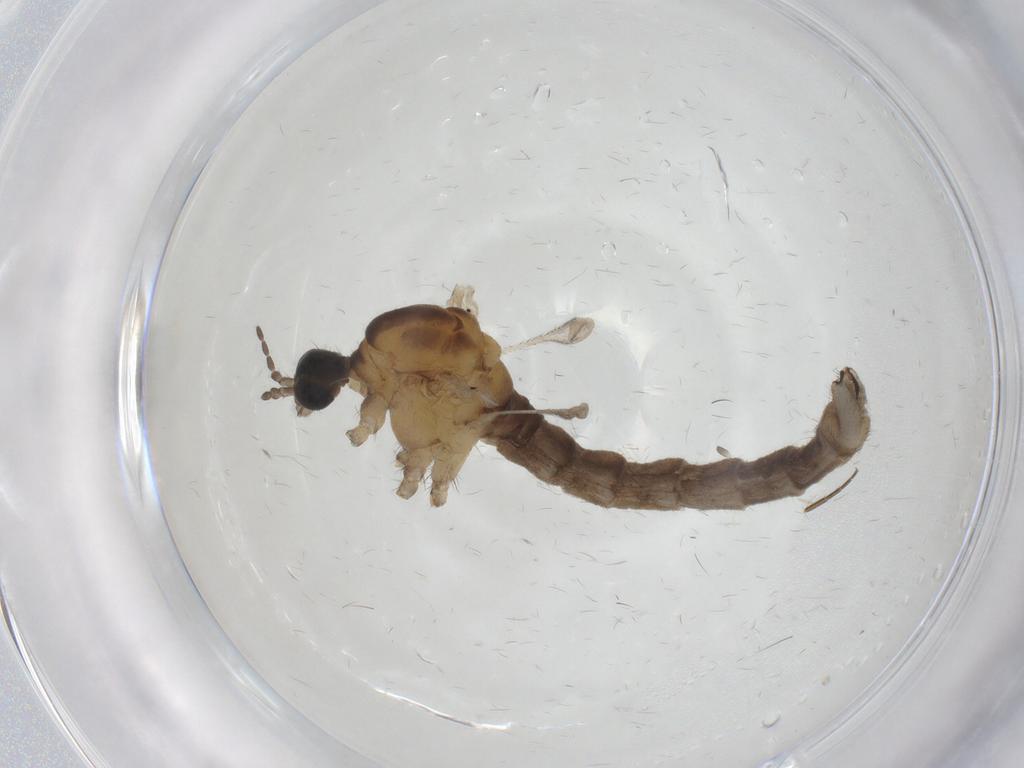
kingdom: Animalia
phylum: Arthropoda
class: Insecta
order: Diptera
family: Limoniidae
